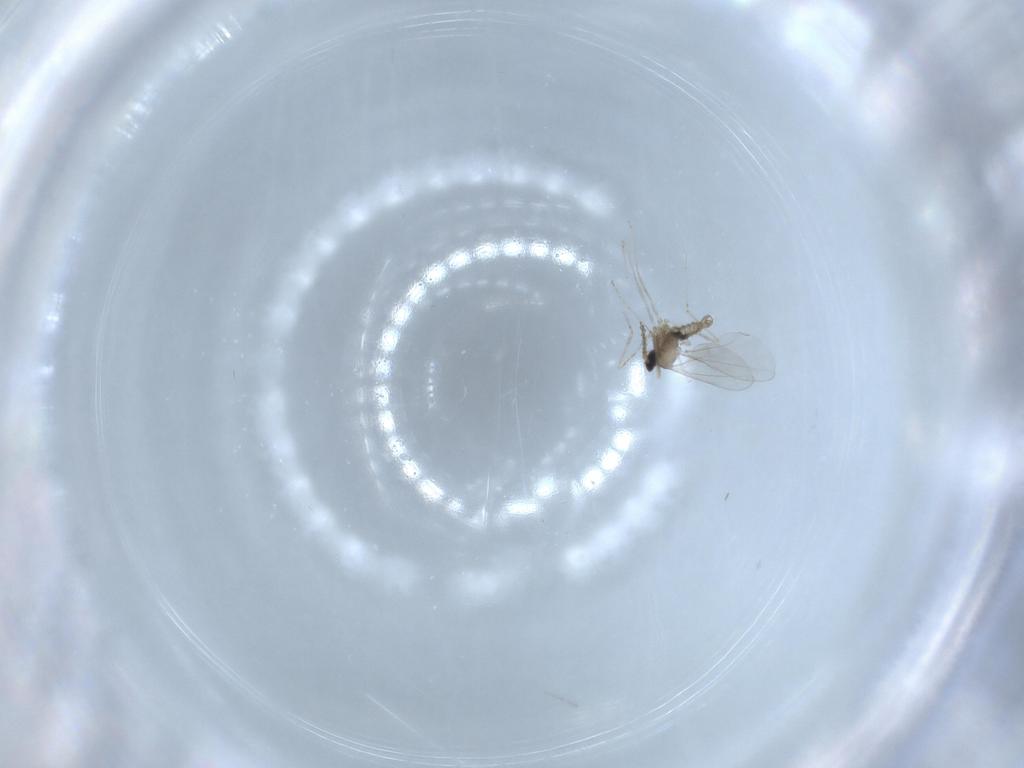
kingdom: Animalia
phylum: Arthropoda
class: Insecta
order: Diptera
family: Cecidomyiidae
